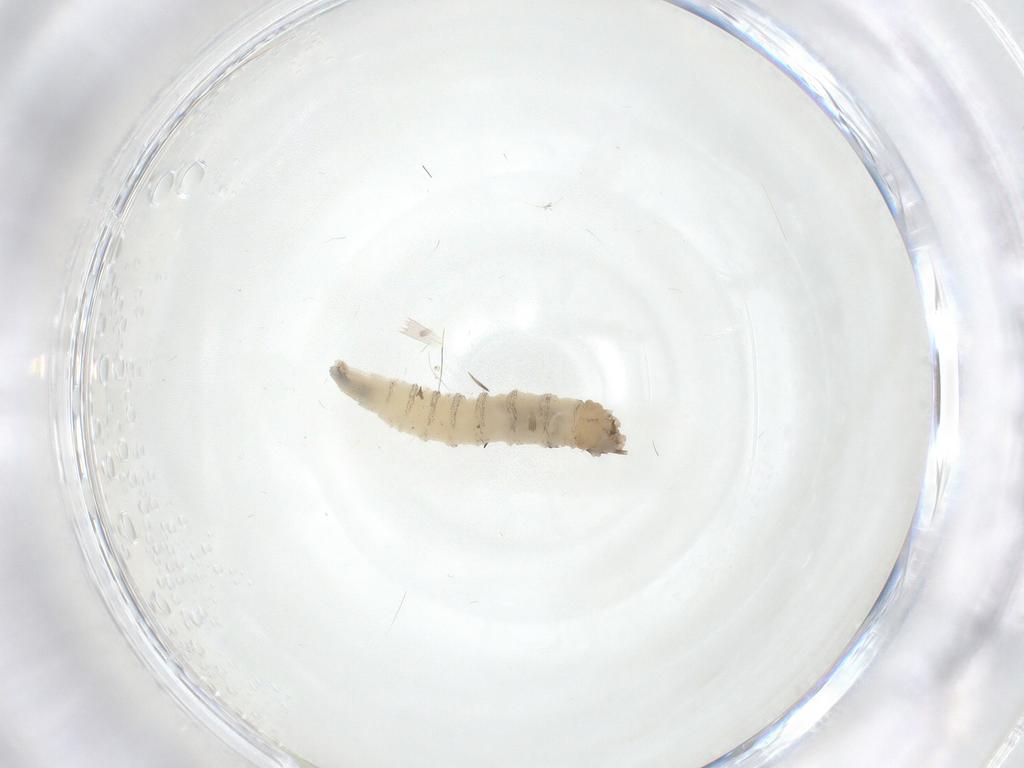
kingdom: Animalia
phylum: Arthropoda
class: Insecta
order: Diptera
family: Drosophilidae
